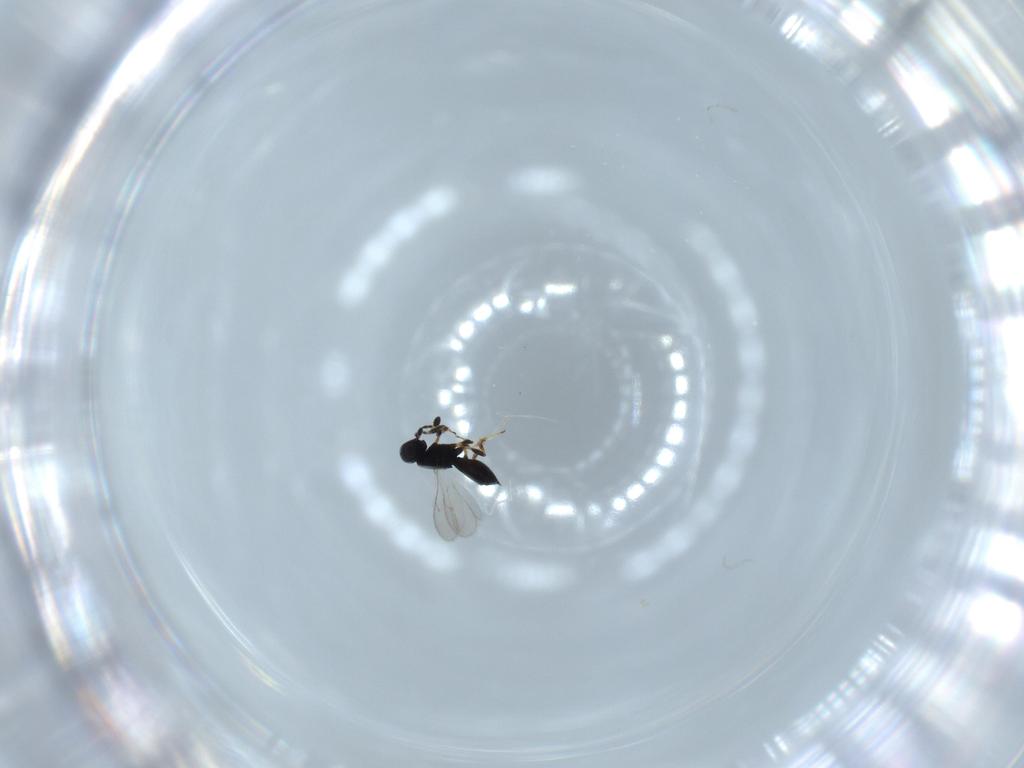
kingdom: Animalia
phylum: Arthropoda
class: Insecta
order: Hymenoptera
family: Scelionidae
